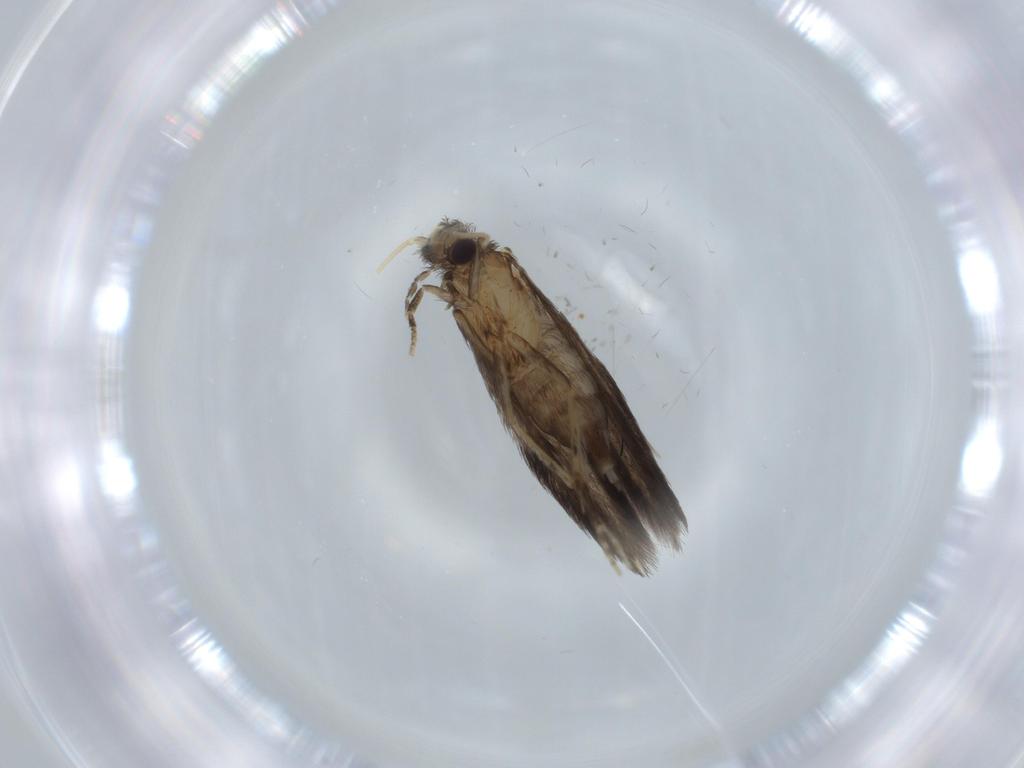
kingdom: Animalia
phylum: Arthropoda
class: Insecta
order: Trichoptera
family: Hydroptilidae
